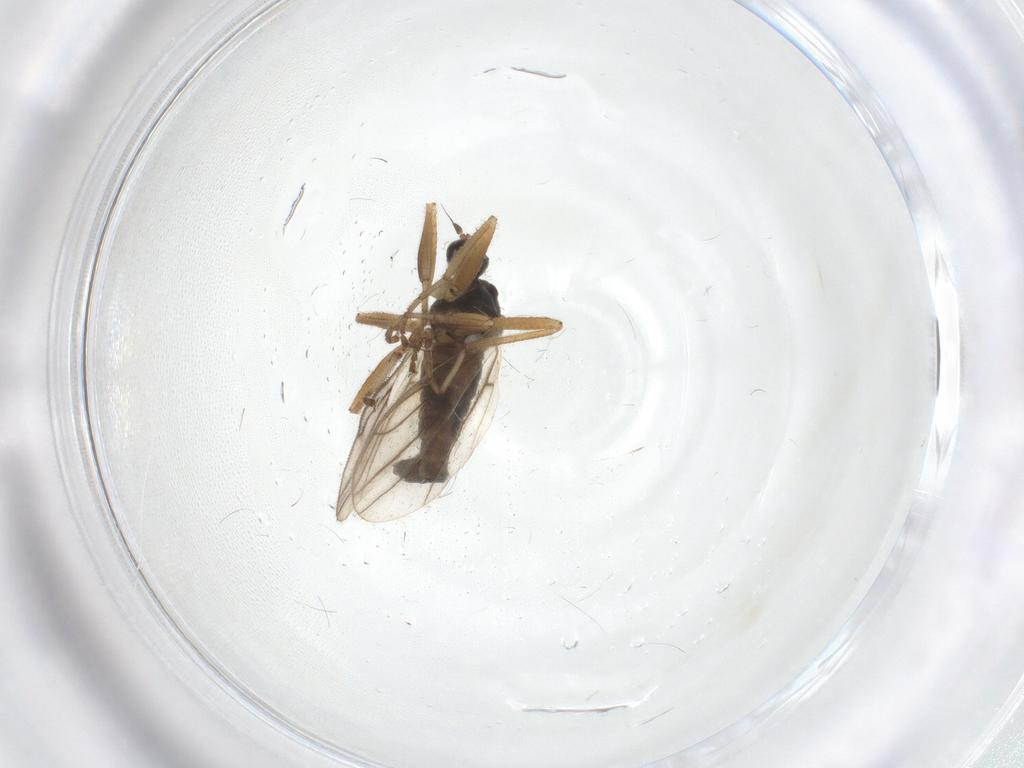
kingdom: Animalia
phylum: Arthropoda
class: Insecta
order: Diptera
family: Hybotidae
